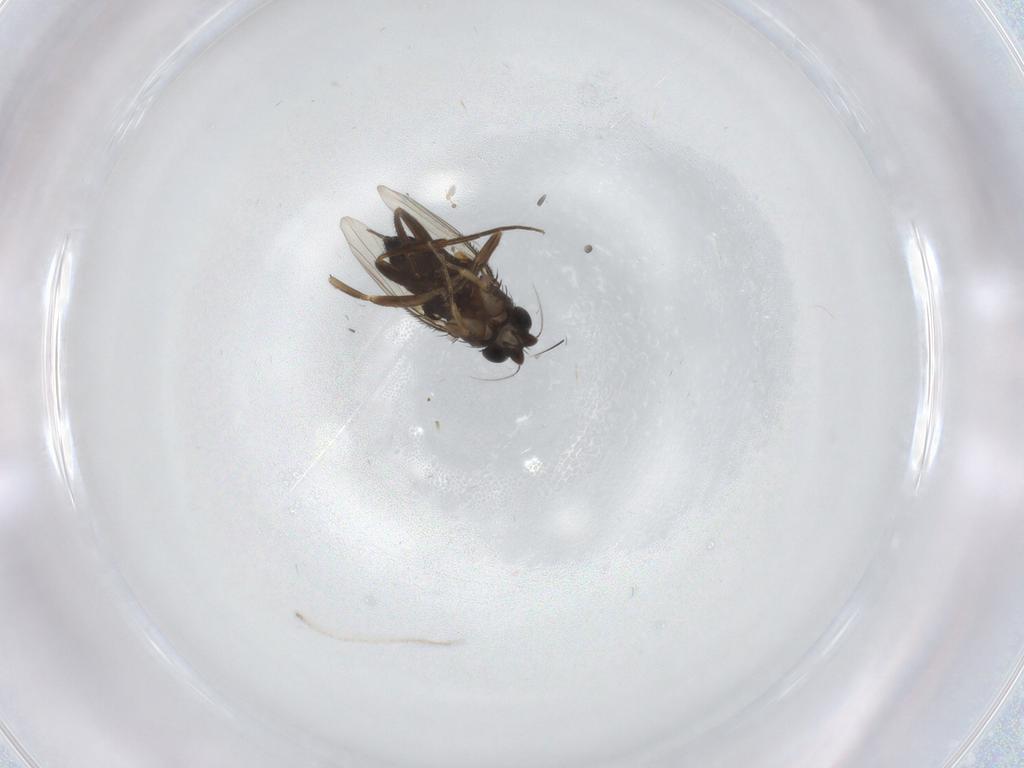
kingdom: Animalia
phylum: Arthropoda
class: Insecta
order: Diptera
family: Phoridae
